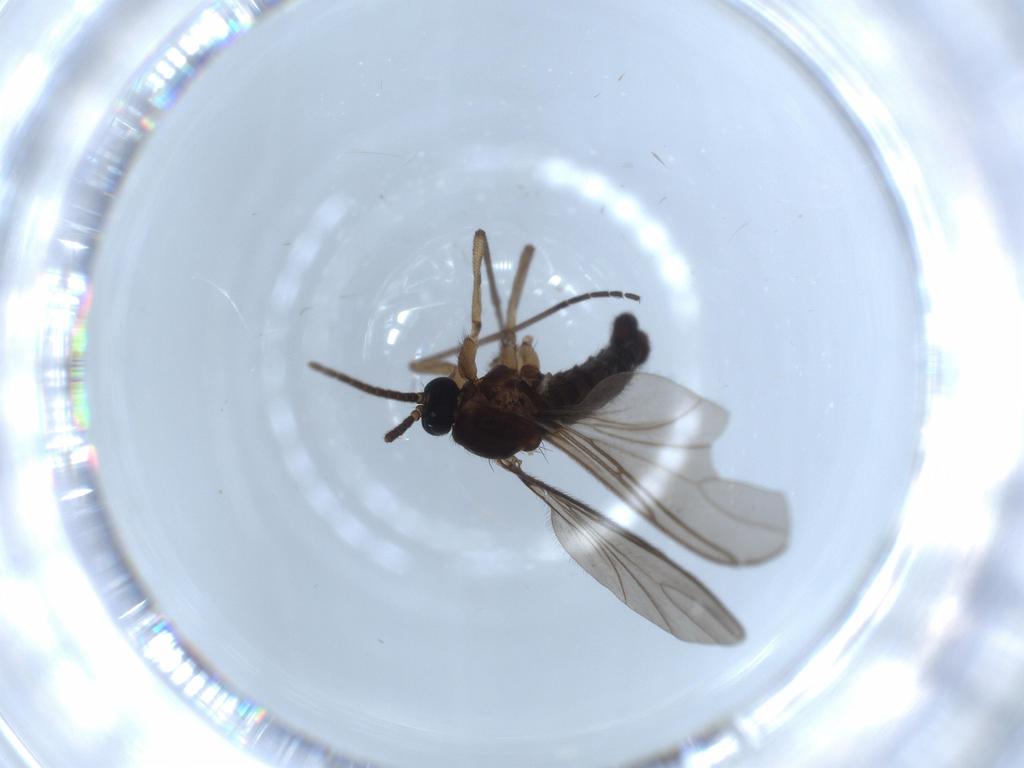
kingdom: Animalia
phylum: Arthropoda
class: Insecta
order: Diptera
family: Sciaridae
